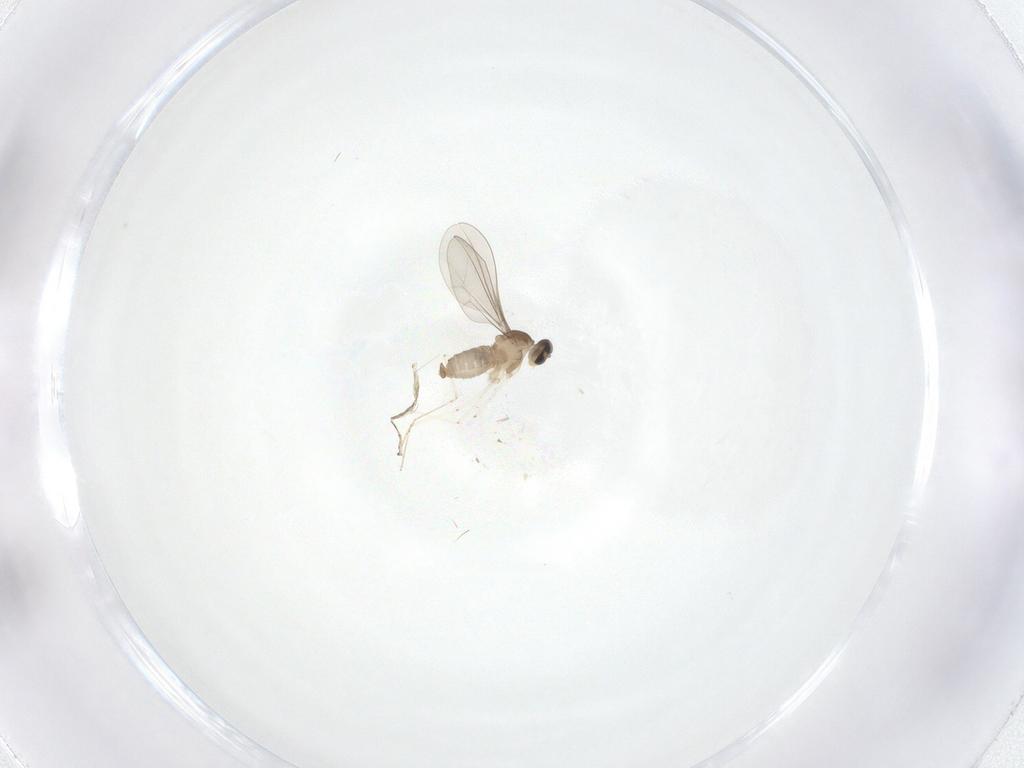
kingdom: Animalia
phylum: Arthropoda
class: Insecta
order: Diptera
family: Cecidomyiidae
